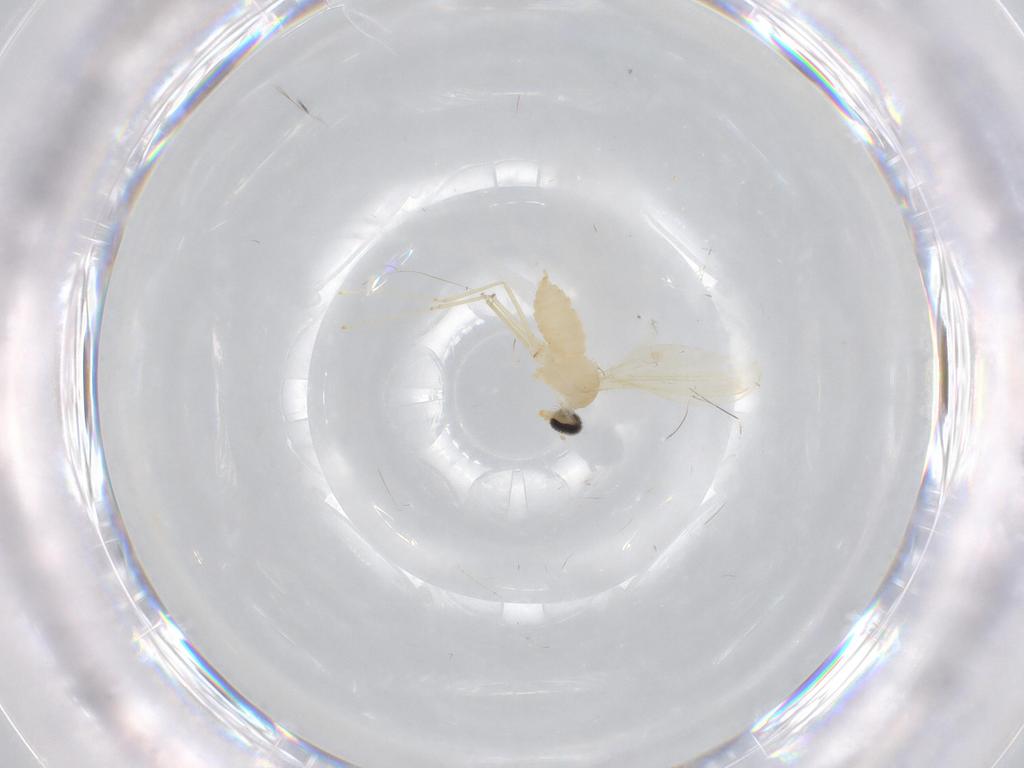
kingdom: Animalia
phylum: Arthropoda
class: Insecta
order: Diptera
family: Cecidomyiidae
